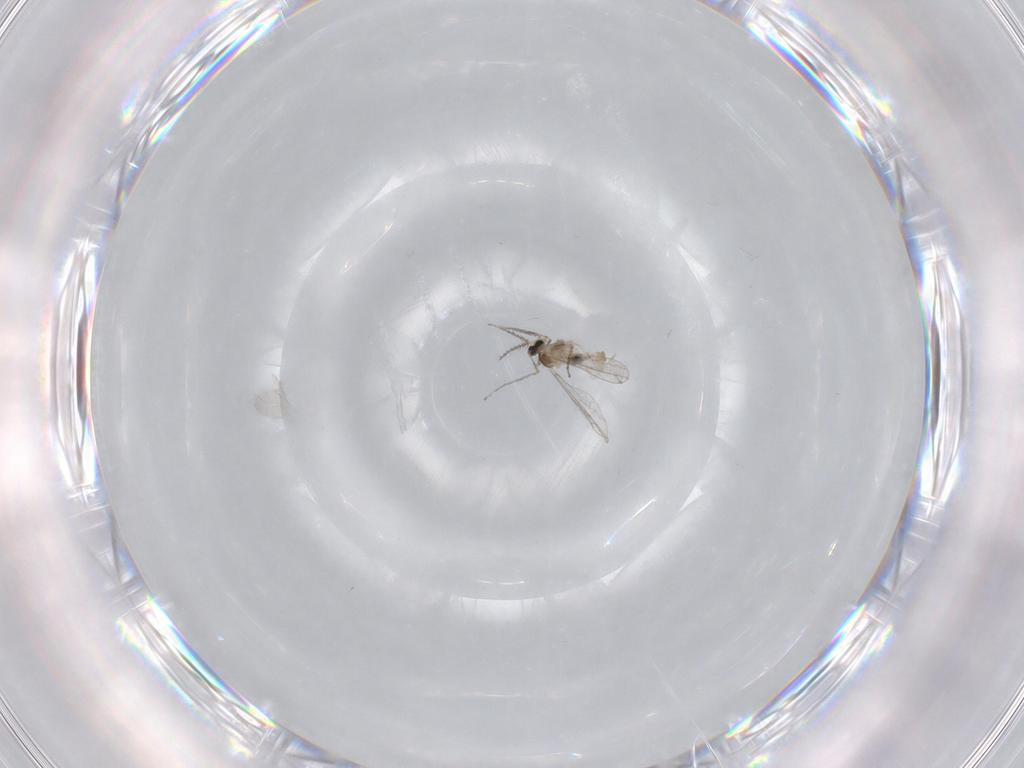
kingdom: Animalia
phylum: Arthropoda
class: Insecta
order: Diptera
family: Cecidomyiidae
